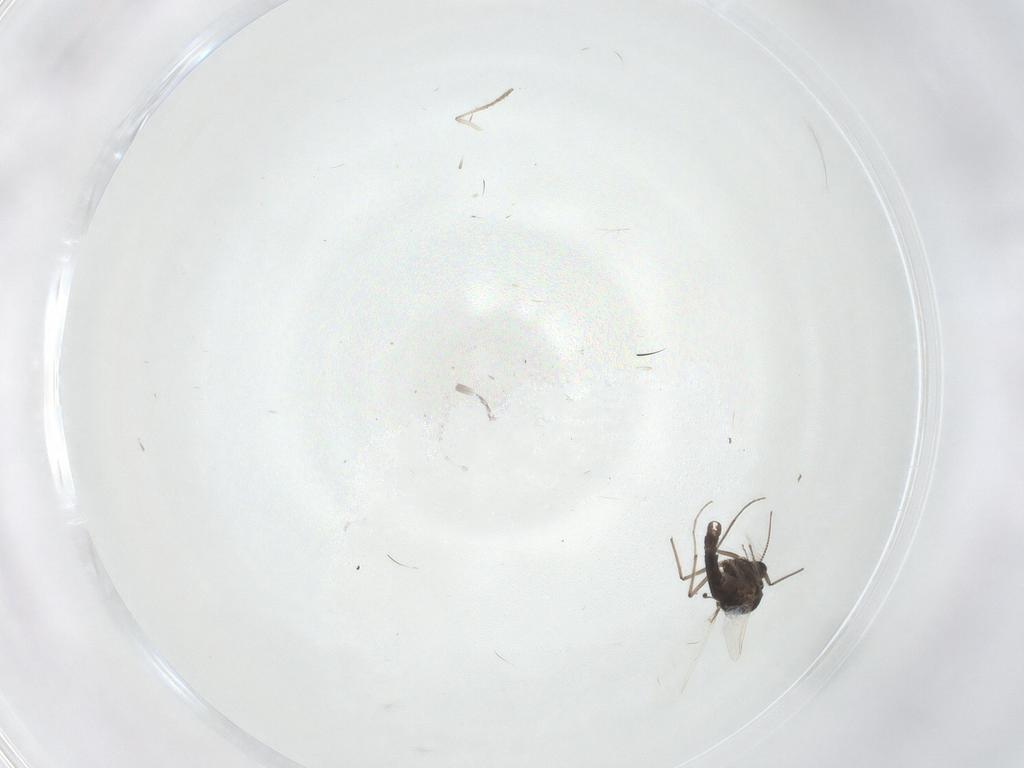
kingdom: Animalia
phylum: Arthropoda
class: Insecta
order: Diptera
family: Chironomidae
